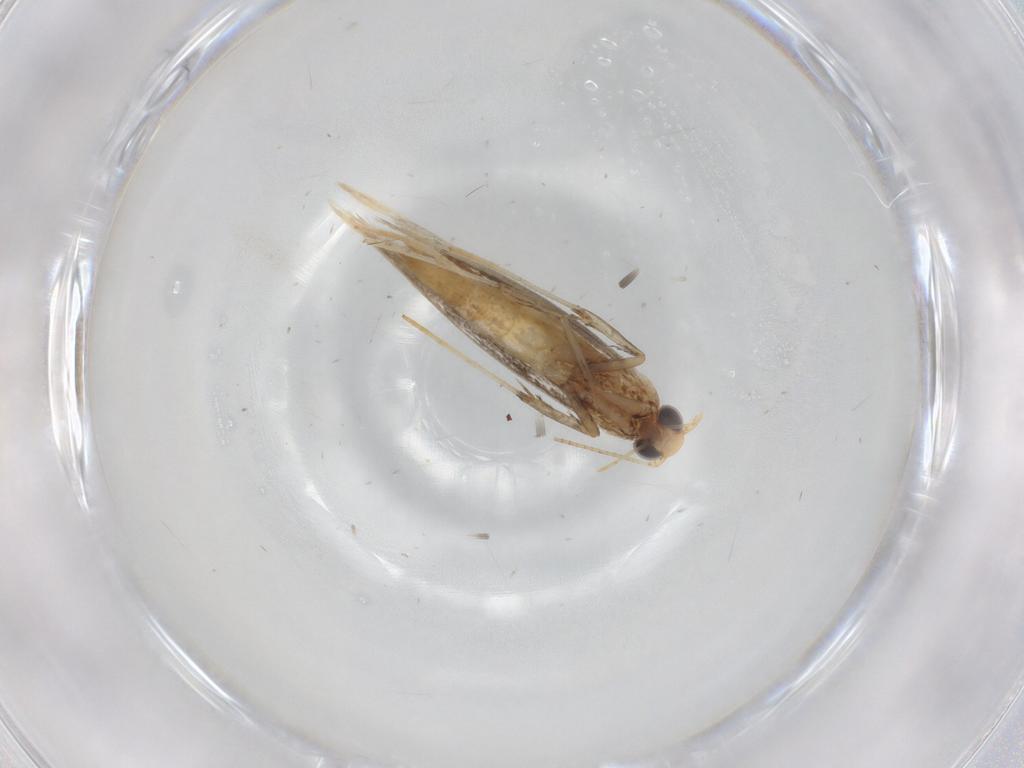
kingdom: Animalia
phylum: Arthropoda
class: Insecta
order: Lepidoptera
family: Gracillariidae
